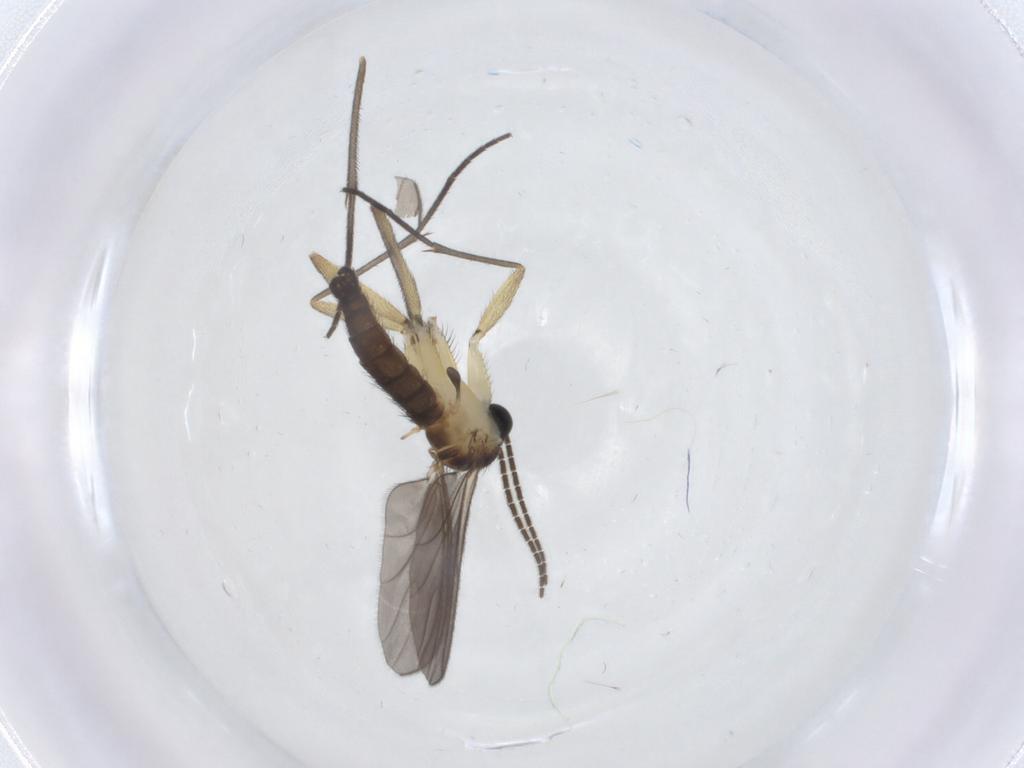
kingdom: Animalia
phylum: Arthropoda
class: Insecta
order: Diptera
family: Sciaridae
